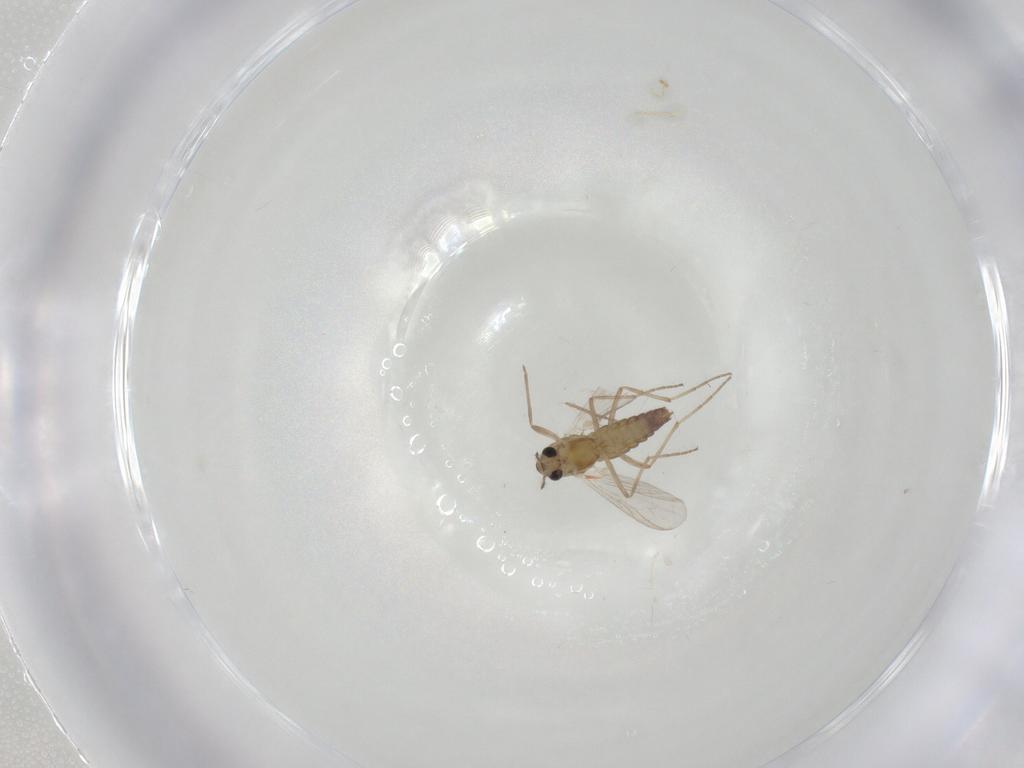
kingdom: Animalia
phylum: Arthropoda
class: Insecta
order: Diptera
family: Chironomidae
